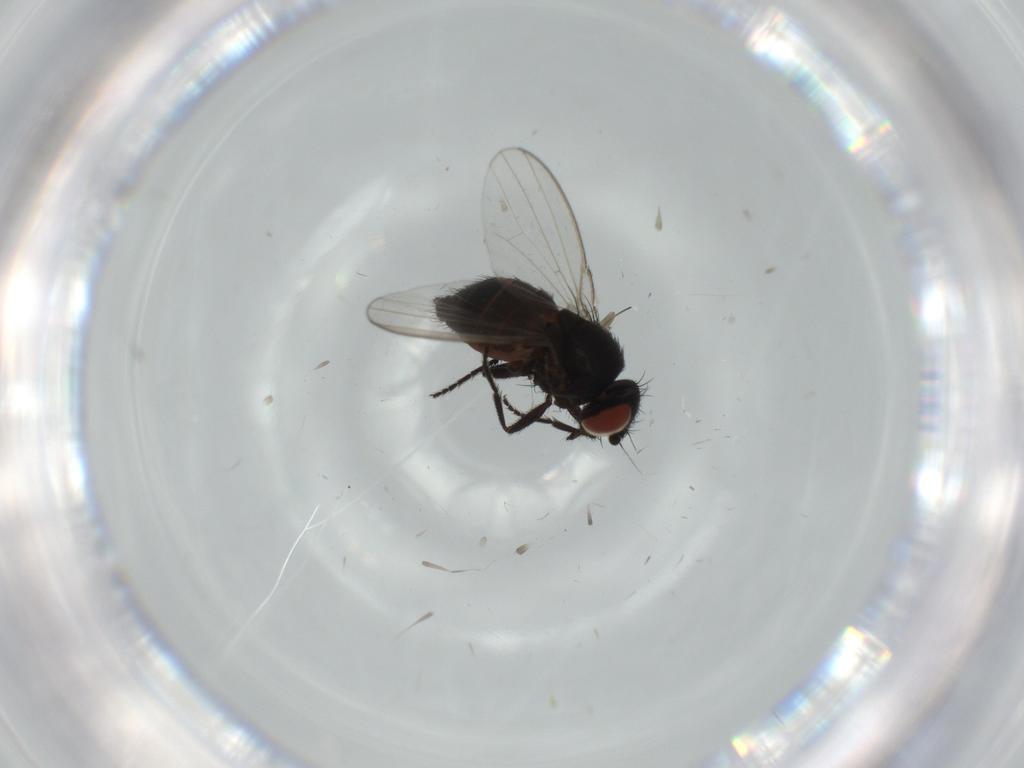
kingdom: Animalia
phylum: Arthropoda
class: Insecta
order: Diptera
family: Milichiidae
